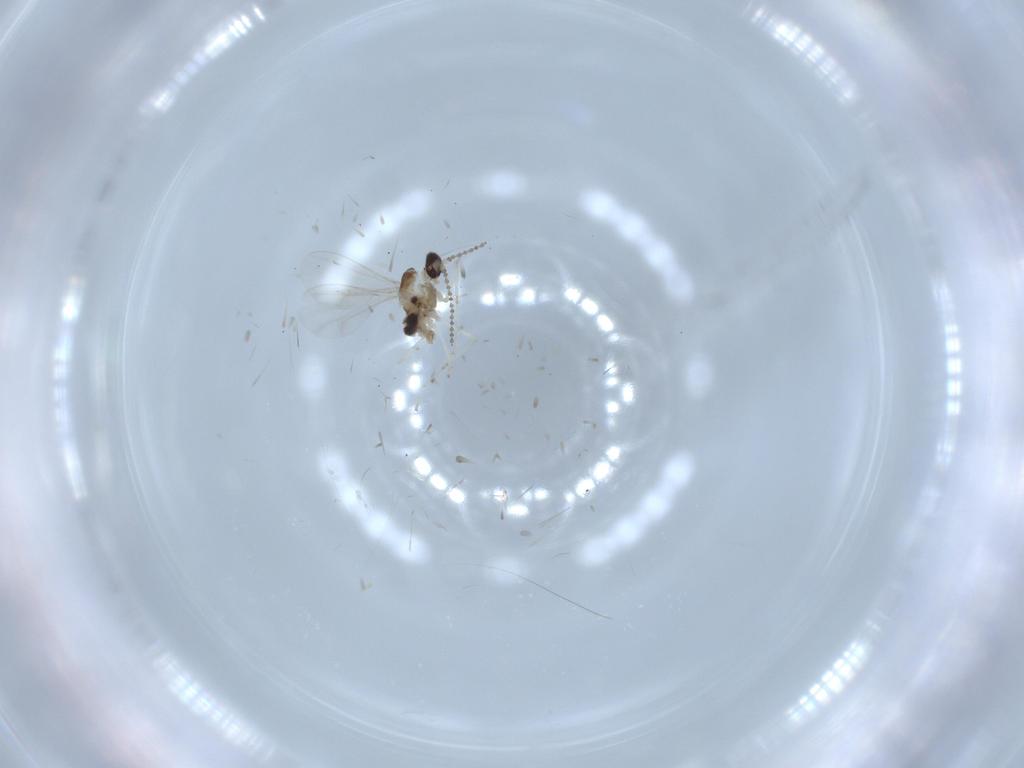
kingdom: Animalia
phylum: Arthropoda
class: Insecta
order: Diptera
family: Cecidomyiidae
